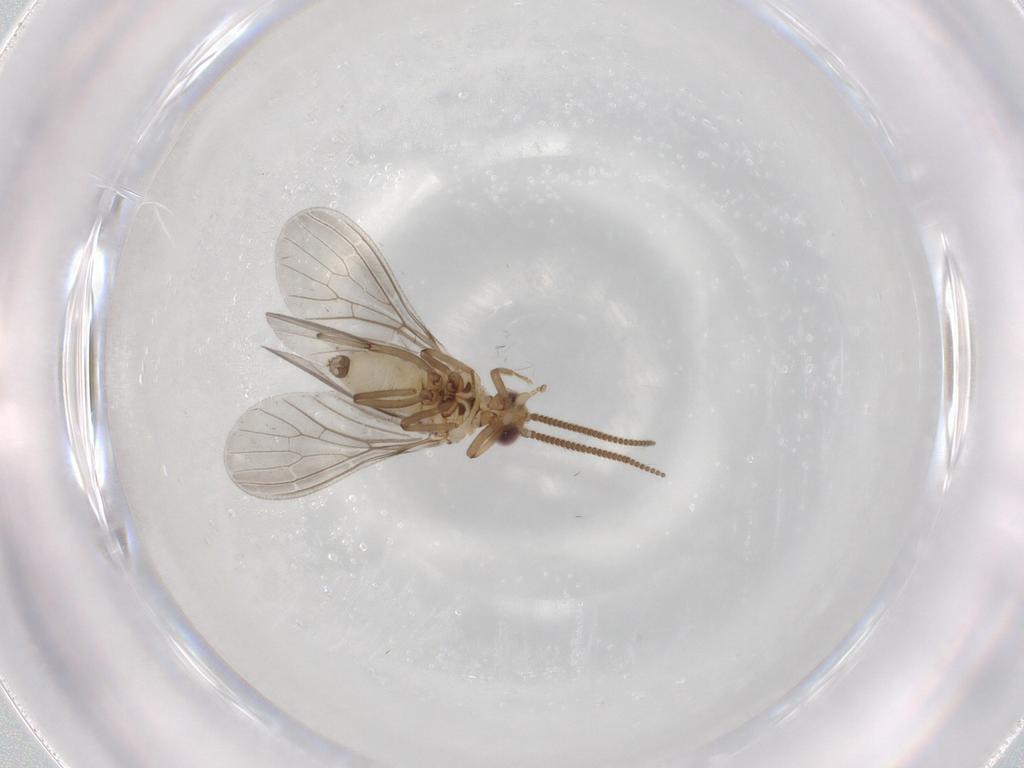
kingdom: Animalia
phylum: Arthropoda
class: Insecta
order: Neuroptera
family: Coniopterygidae
